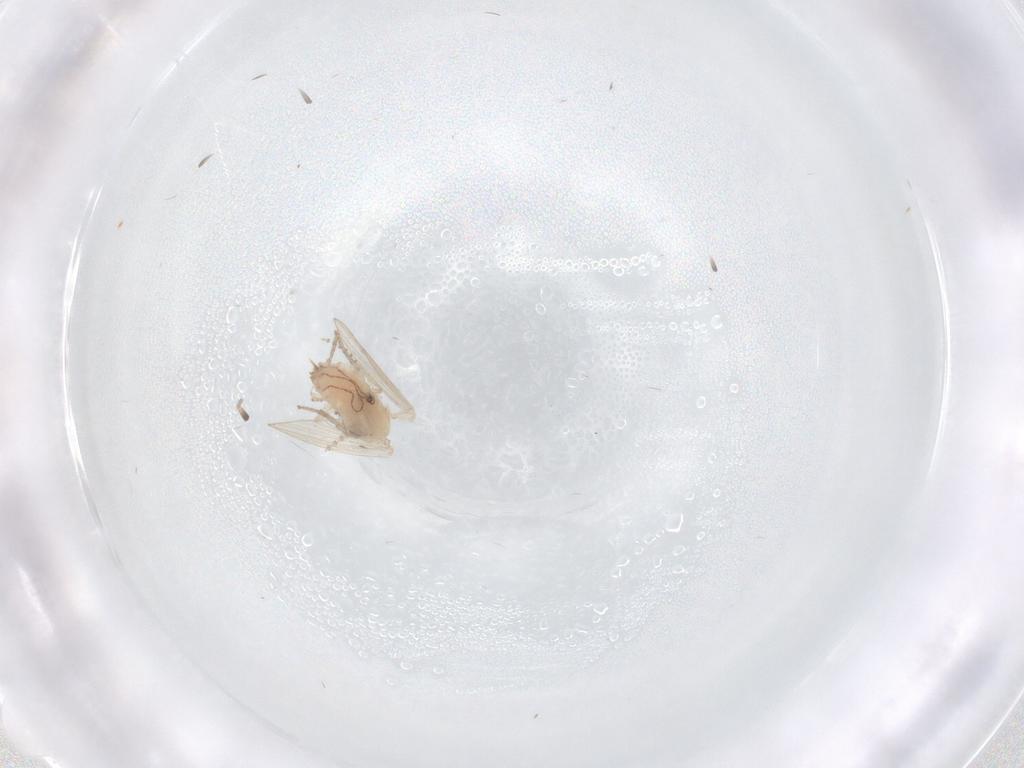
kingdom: Animalia
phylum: Arthropoda
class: Insecta
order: Diptera
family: Psychodidae
